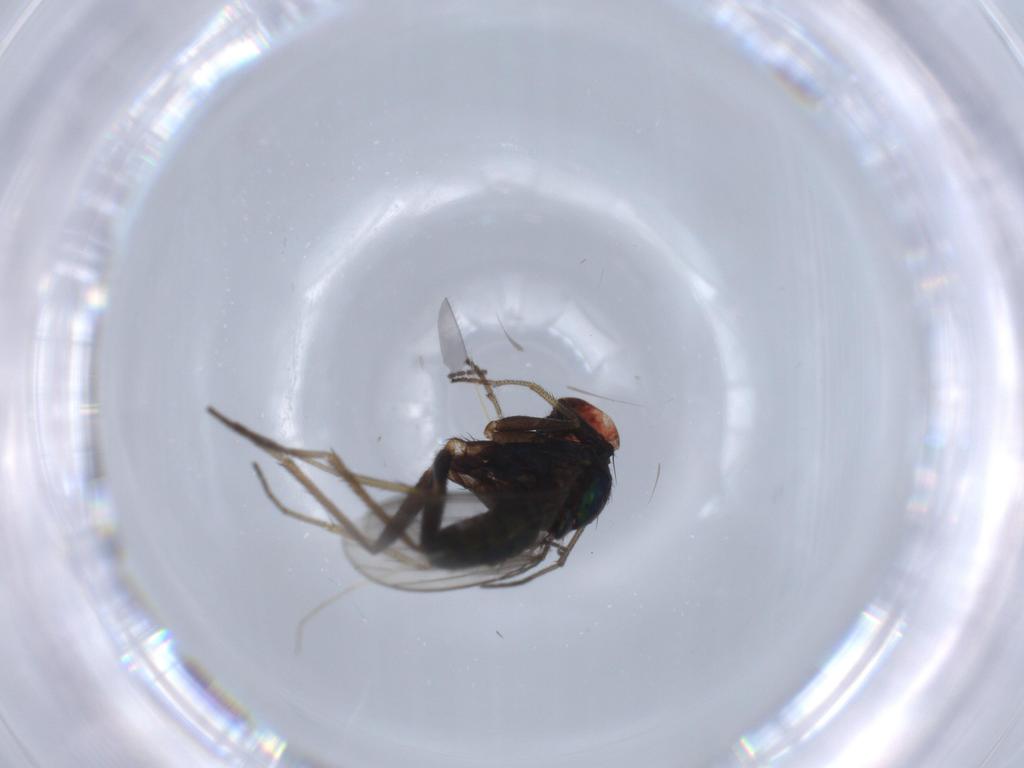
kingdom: Animalia
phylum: Arthropoda
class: Insecta
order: Diptera
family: Sciaridae
